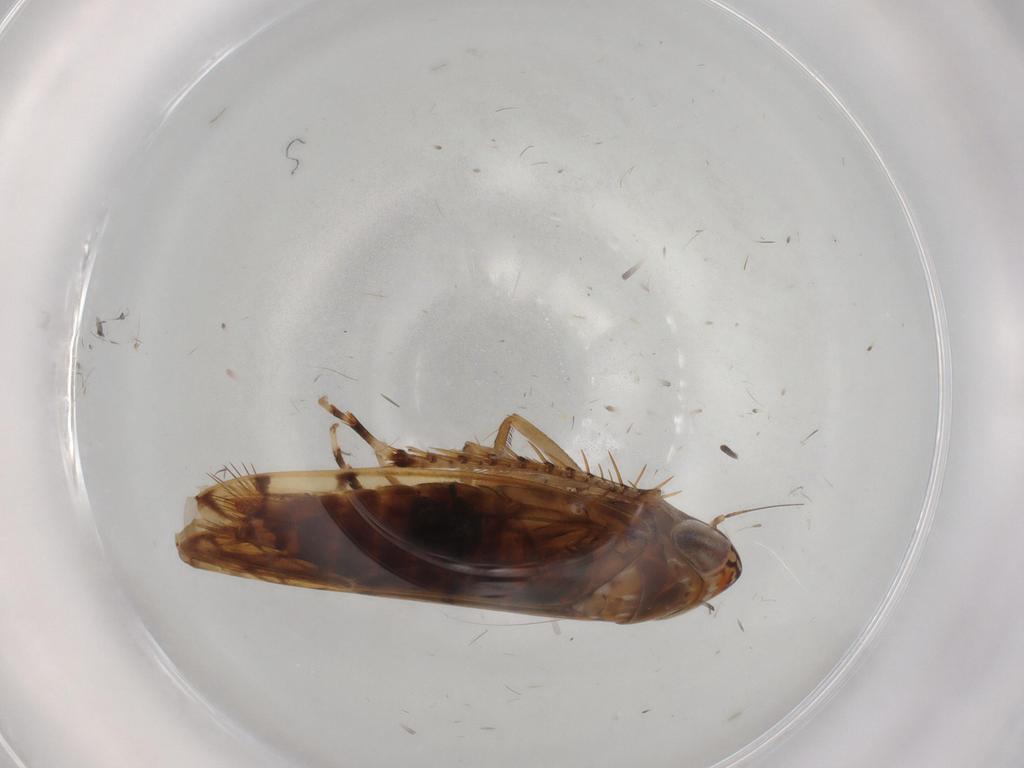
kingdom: Animalia
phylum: Arthropoda
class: Insecta
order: Hemiptera
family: Cicadellidae
